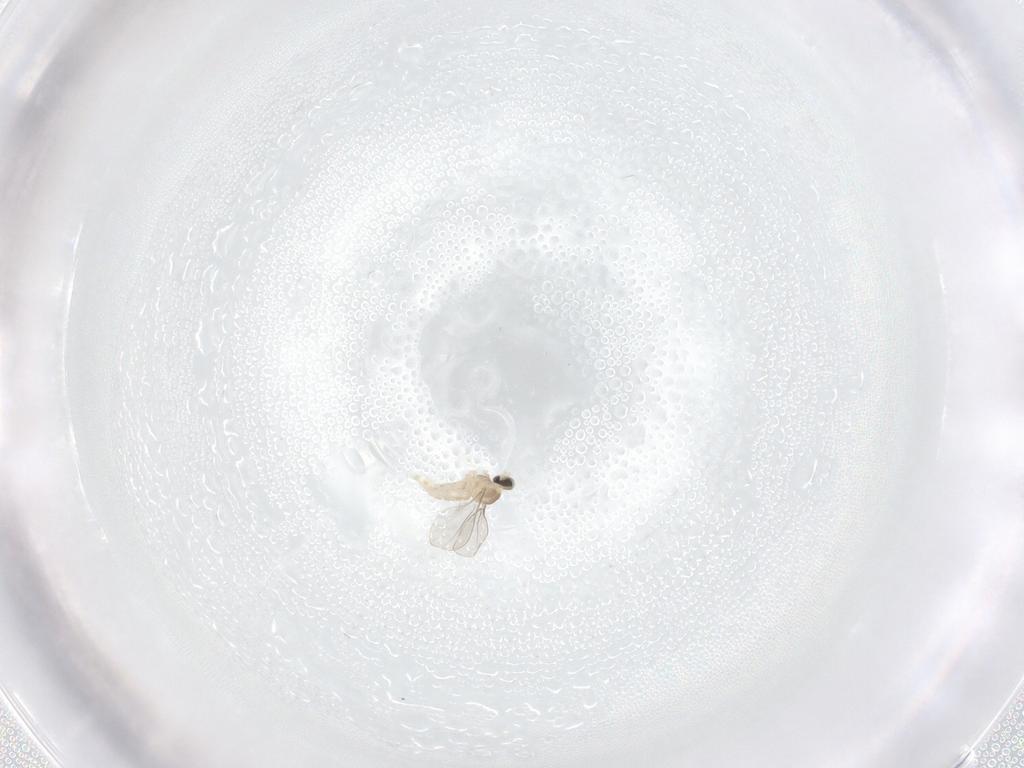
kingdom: Animalia
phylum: Arthropoda
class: Insecta
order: Diptera
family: Cecidomyiidae
